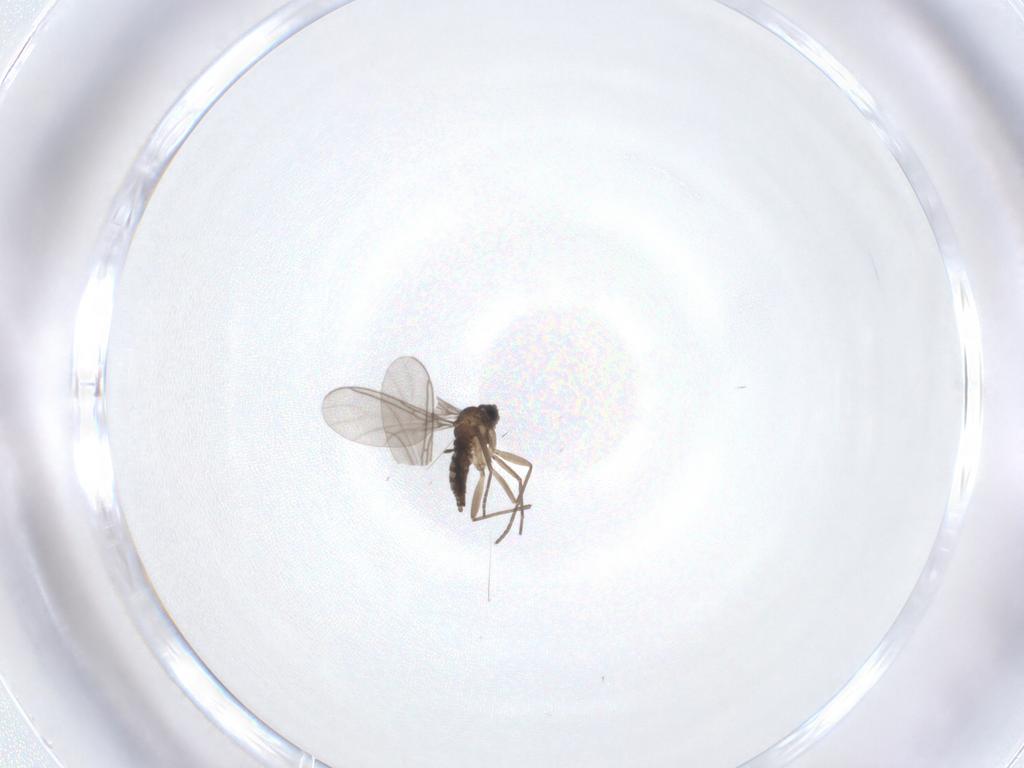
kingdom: Animalia
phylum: Arthropoda
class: Insecta
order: Diptera
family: Sciaridae
